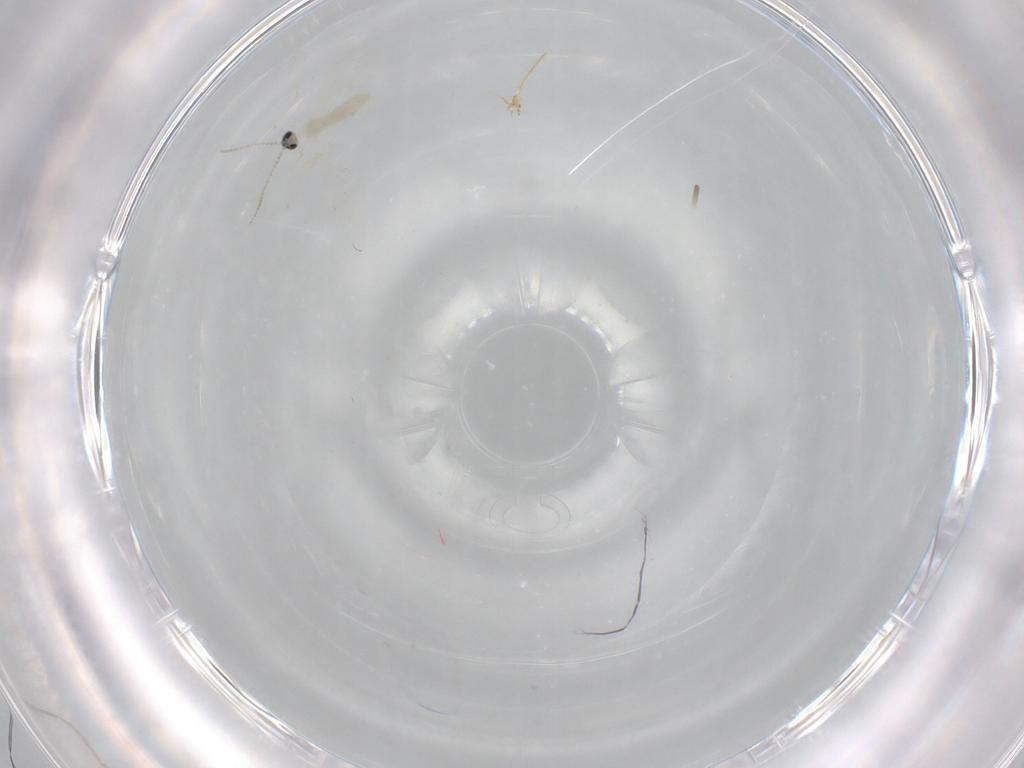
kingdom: Animalia
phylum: Arthropoda
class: Insecta
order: Diptera
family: Cecidomyiidae
